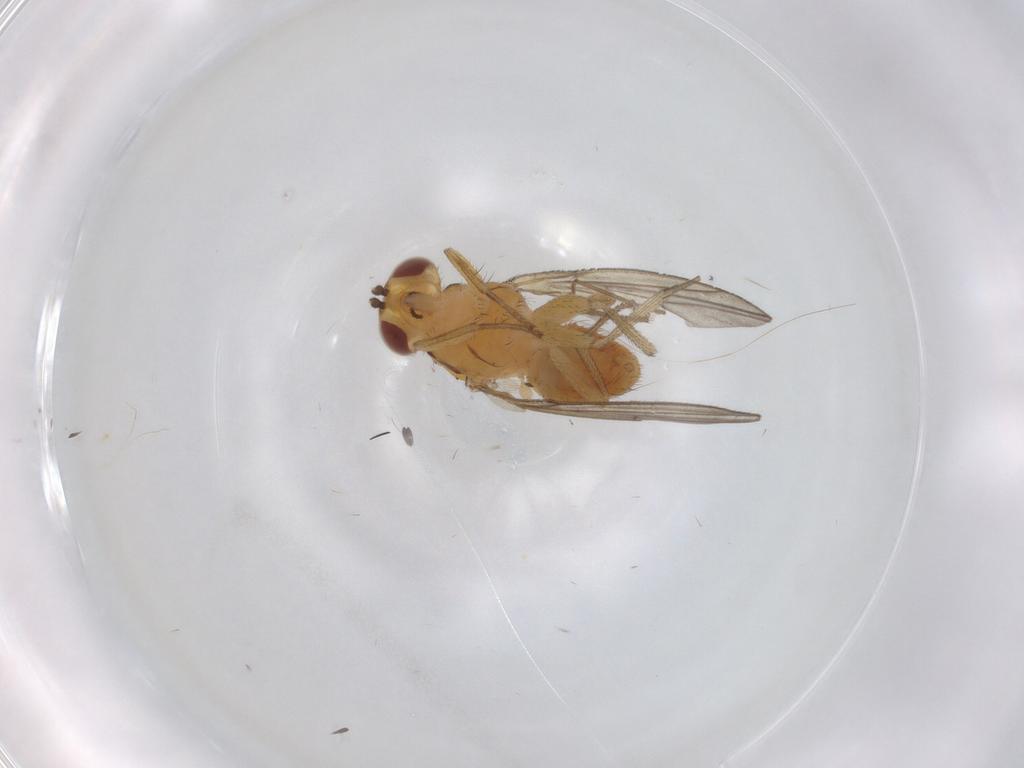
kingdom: Animalia
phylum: Arthropoda
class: Insecta
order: Diptera
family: Chironomidae
